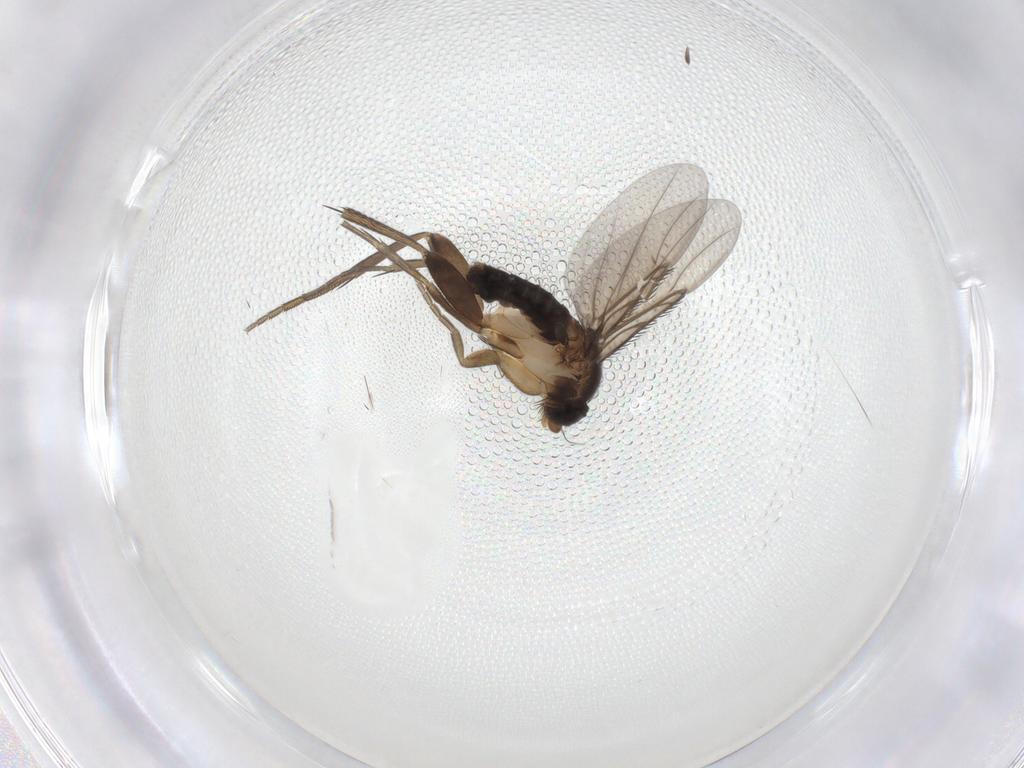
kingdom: Animalia
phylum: Arthropoda
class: Insecta
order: Diptera
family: Phoridae
